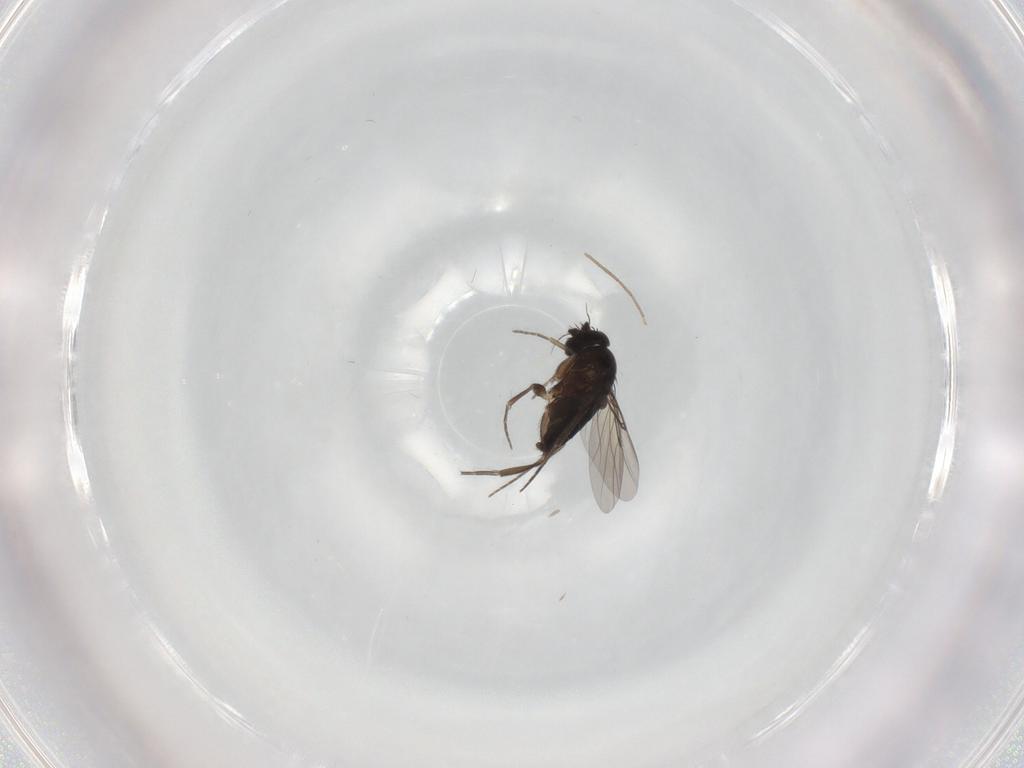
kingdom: Animalia
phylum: Arthropoda
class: Insecta
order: Diptera
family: Phoridae
